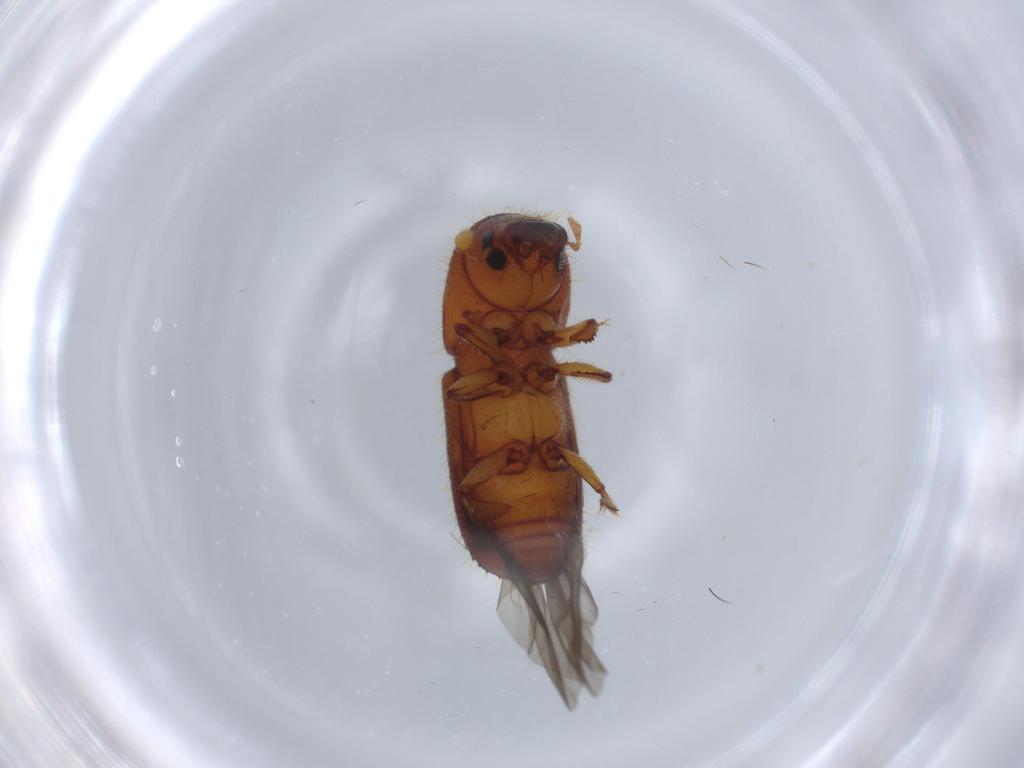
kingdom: Animalia
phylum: Arthropoda
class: Insecta
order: Coleoptera
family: Curculionidae
